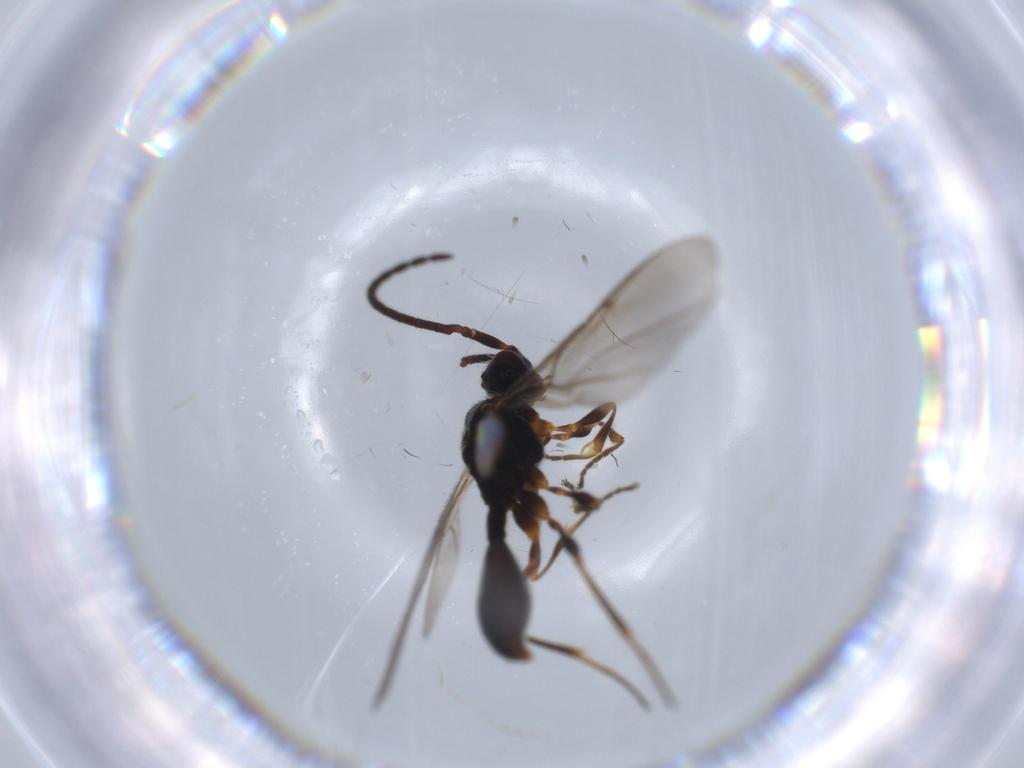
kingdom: Animalia
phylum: Arthropoda
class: Insecta
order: Hymenoptera
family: Diapriidae
